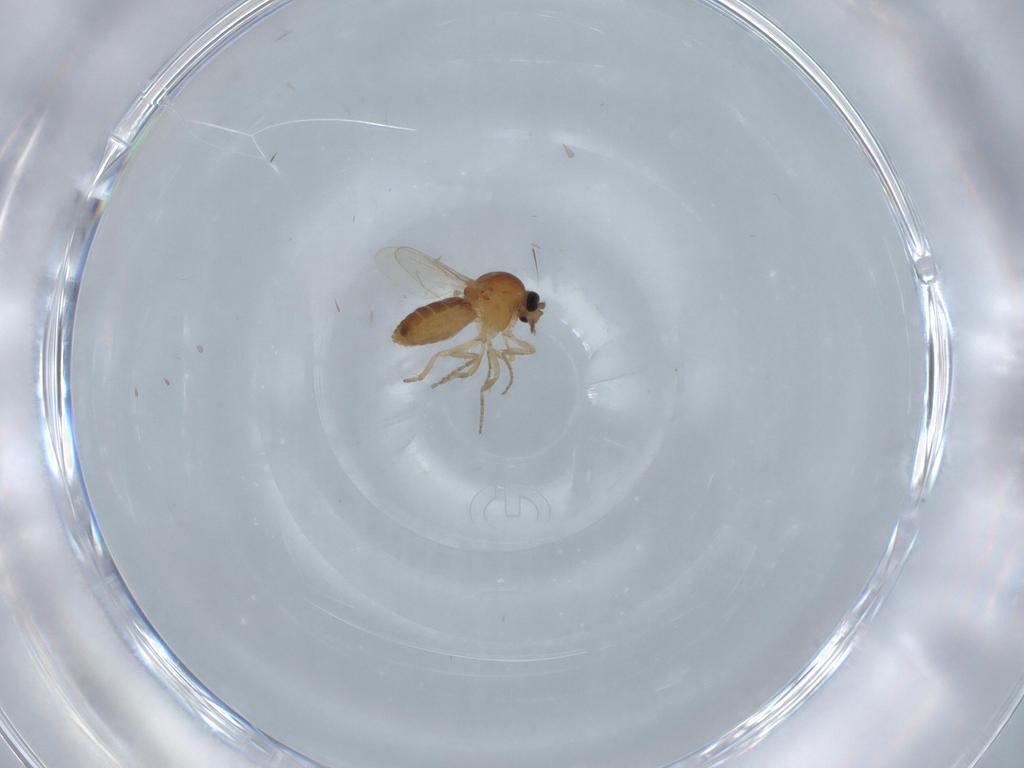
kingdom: Animalia
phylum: Arthropoda
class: Insecta
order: Diptera
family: Ceratopogonidae
